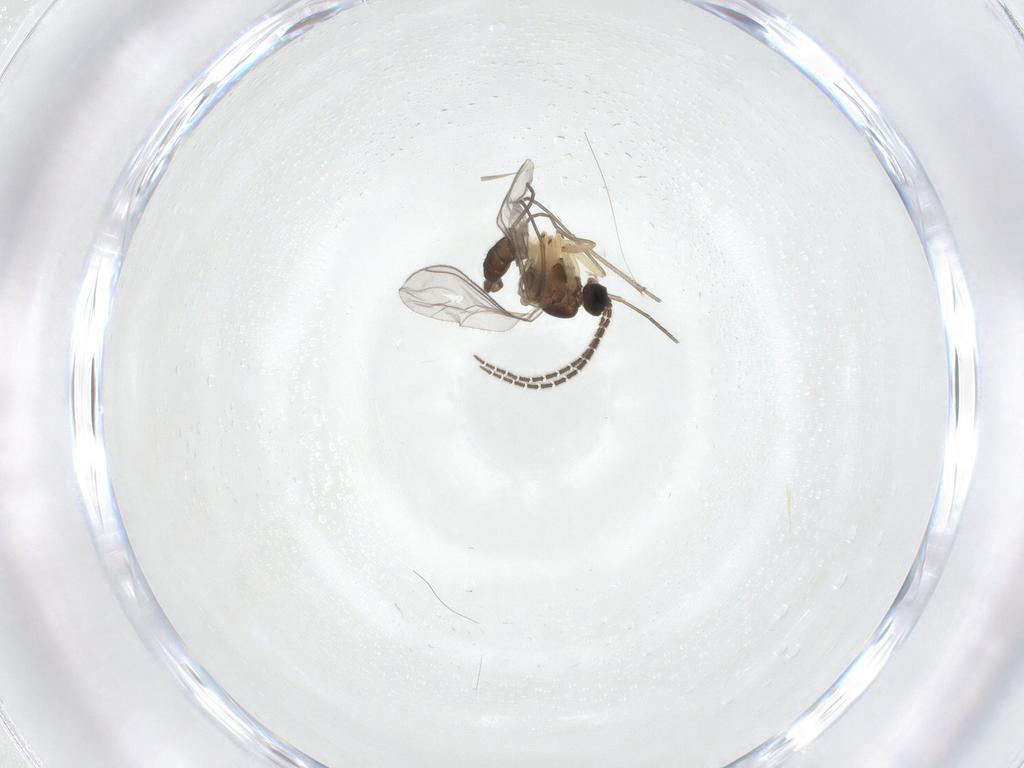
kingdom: Animalia
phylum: Arthropoda
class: Insecta
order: Diptera
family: Sciaridae
